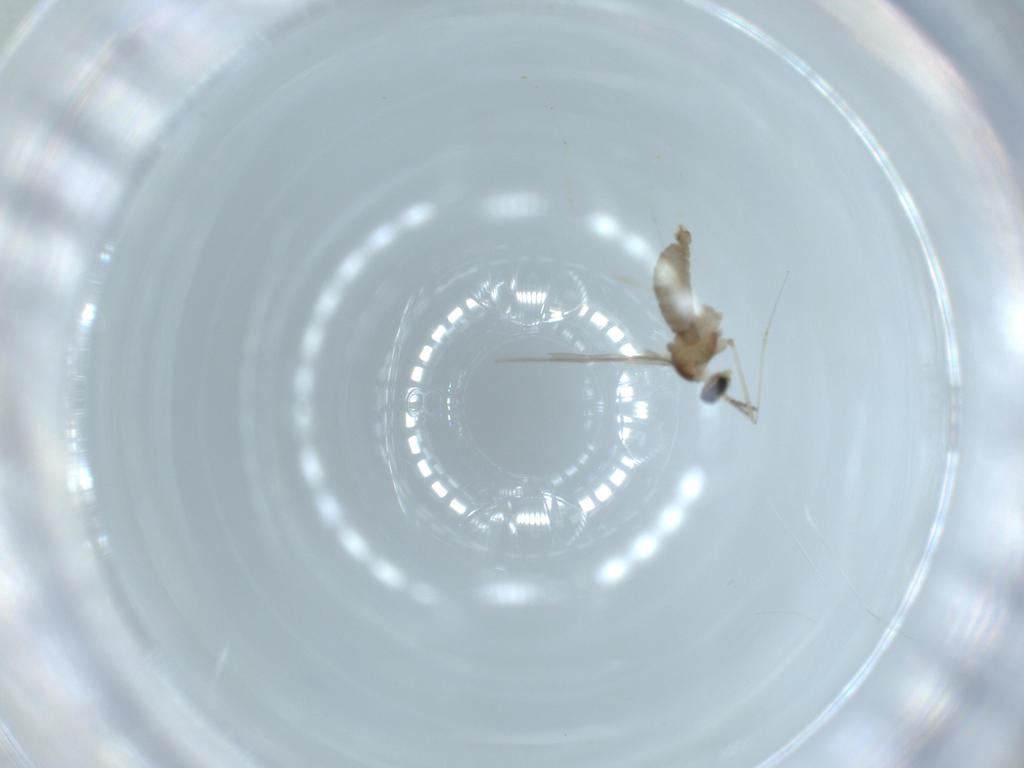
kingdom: Animalia
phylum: Arthropoda
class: Insecta
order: Diptera
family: Cecidomyiidae
